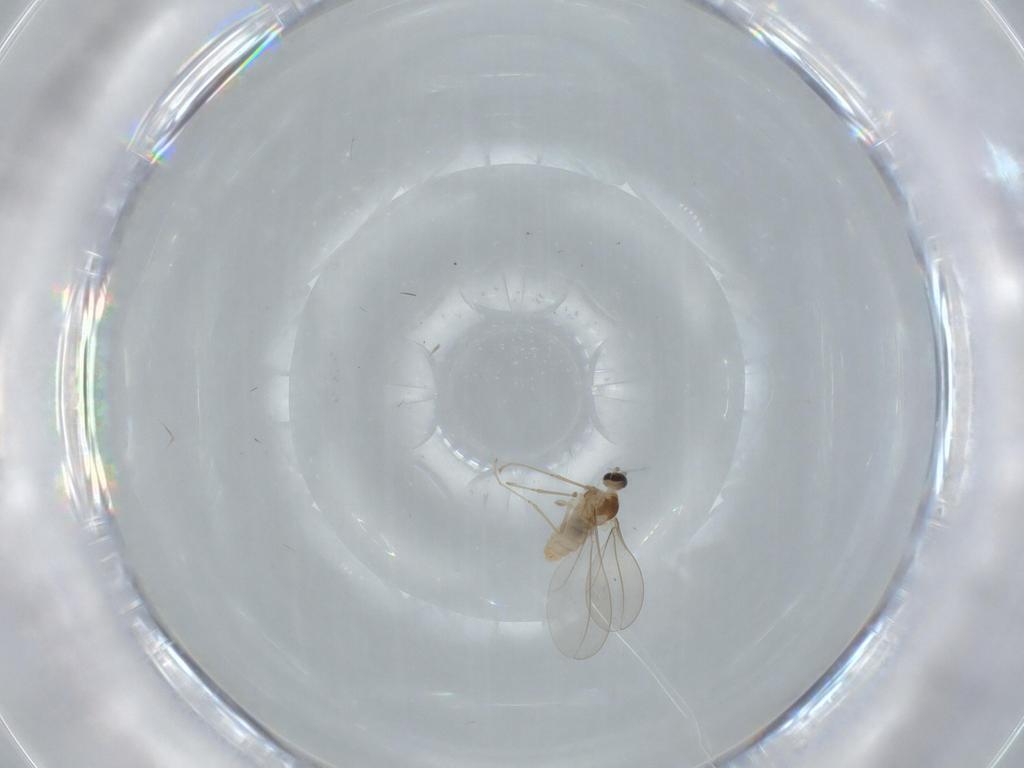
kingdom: Animalia
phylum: Arthropoda
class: Insecta
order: Diptera
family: Cecidomyiidae
